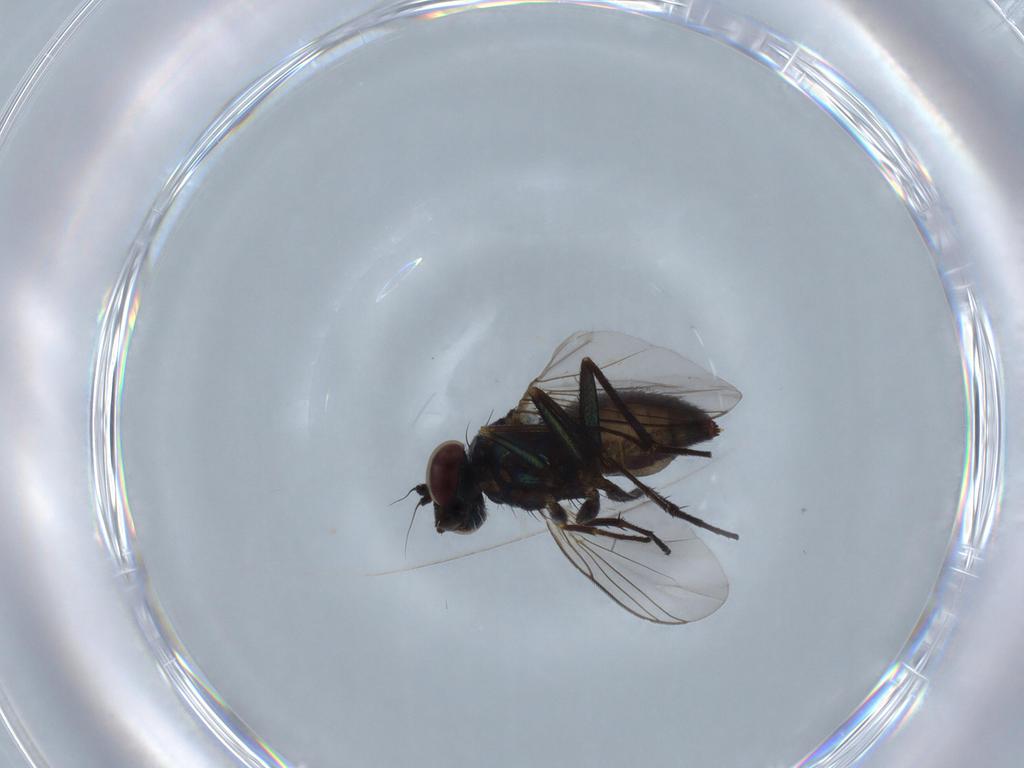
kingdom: Animalia
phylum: Arthropoda
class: Insecta
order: Diptera
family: Dolichopodidae
